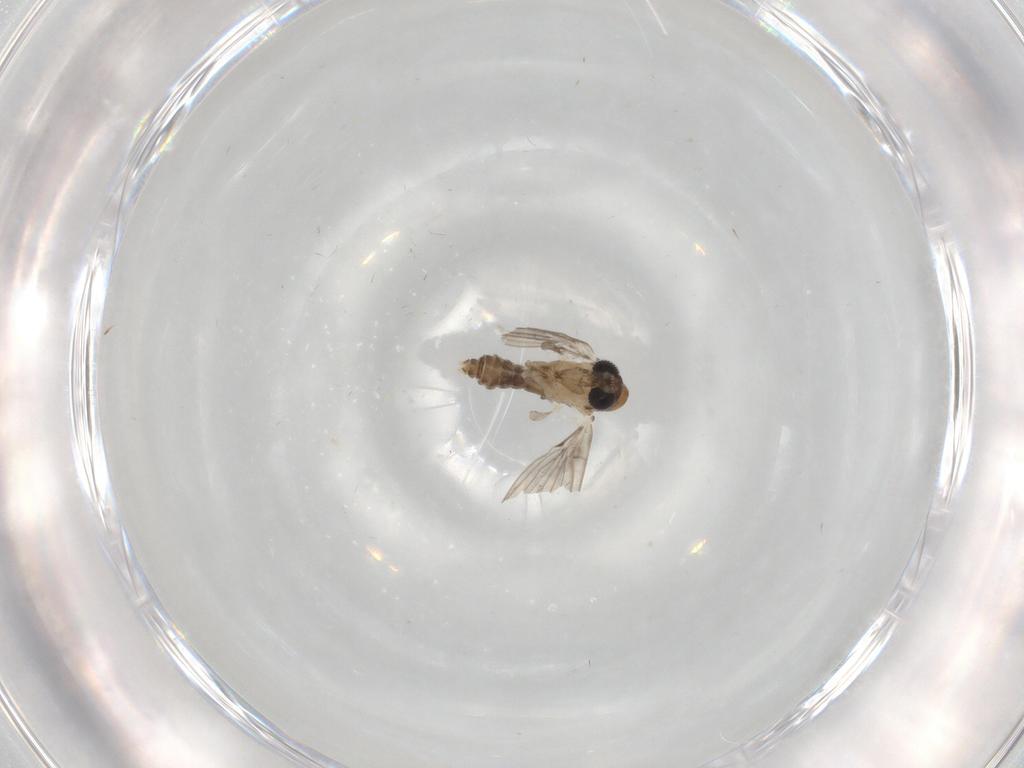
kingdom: Animalia
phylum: Arthropoda
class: Insecta
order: Diptera
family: Psychodidae
